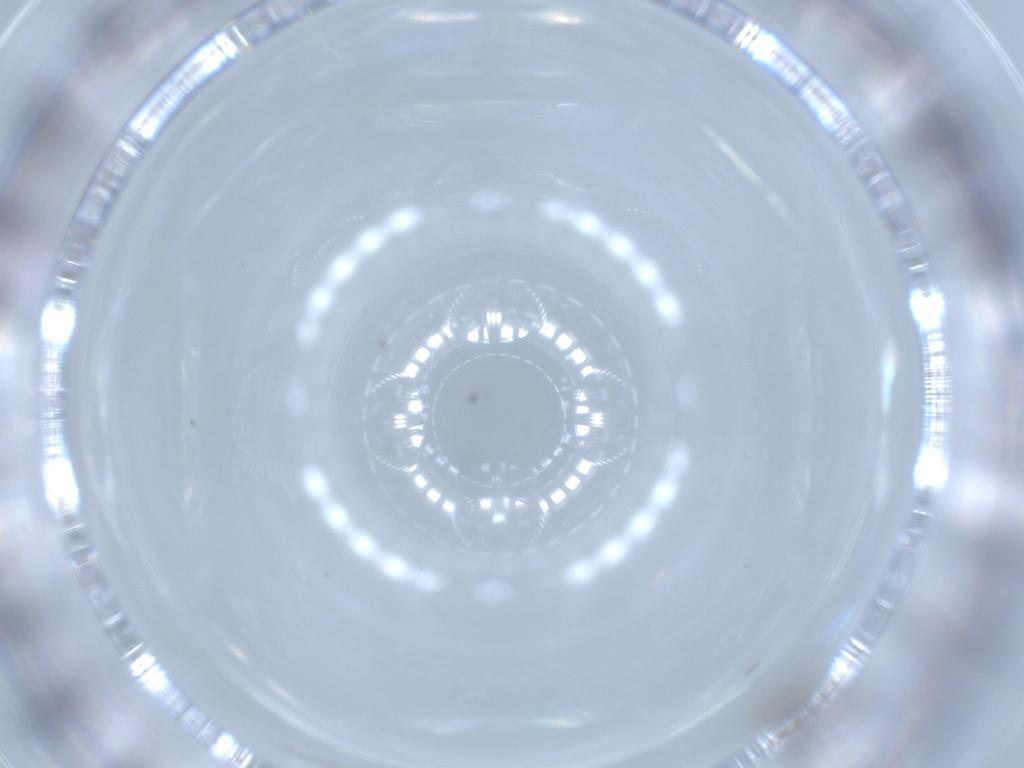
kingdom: Animalia
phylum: Arthropoda
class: Insecta
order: Diptera
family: Sciaridae
